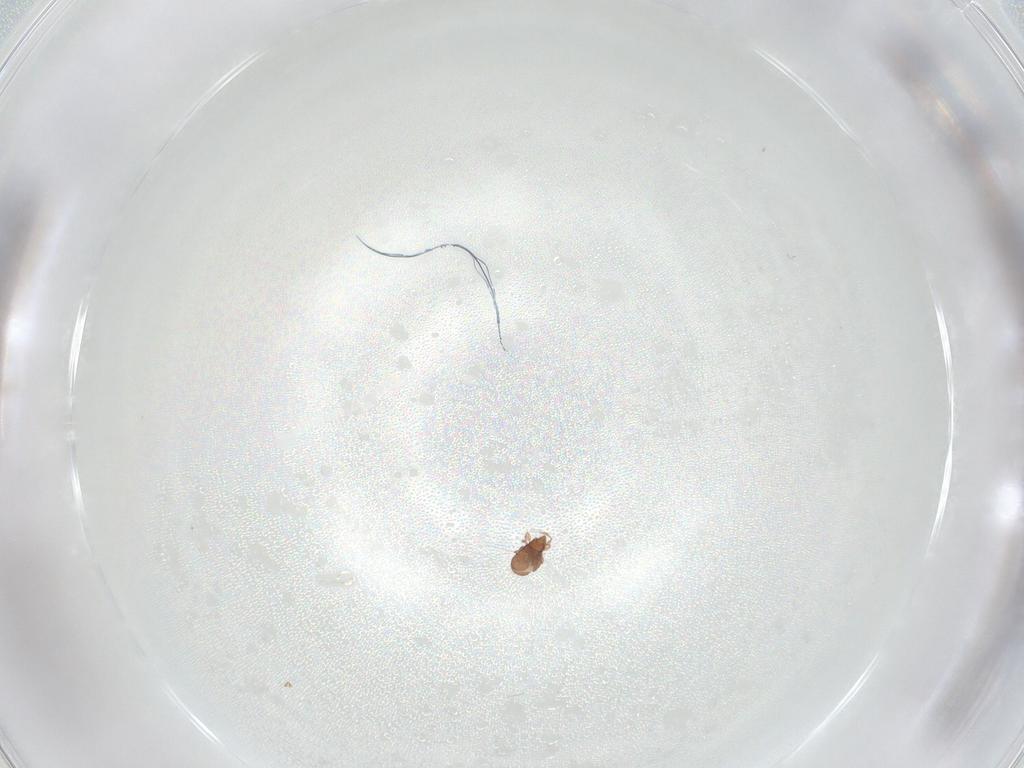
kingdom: Animalia
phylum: Arthropoda
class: Arachnida
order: Sarcoptiformes
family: Oribatulidae
